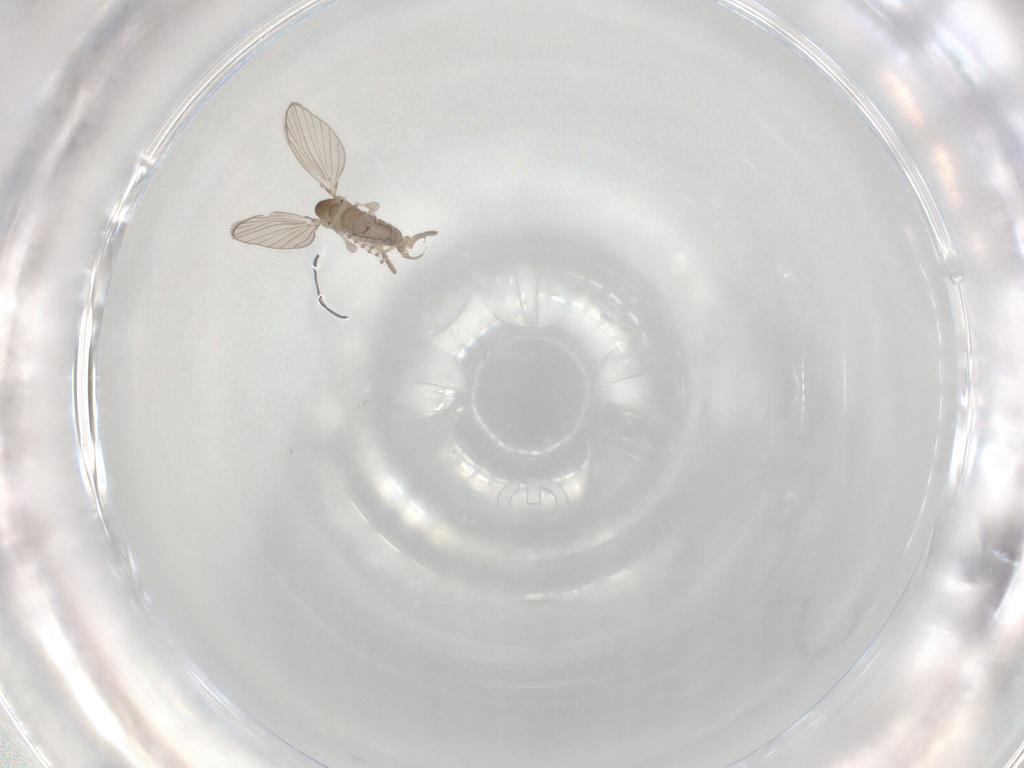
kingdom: Animalia
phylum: Arthropoda
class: Insecta
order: Diptera
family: Psychodidae
